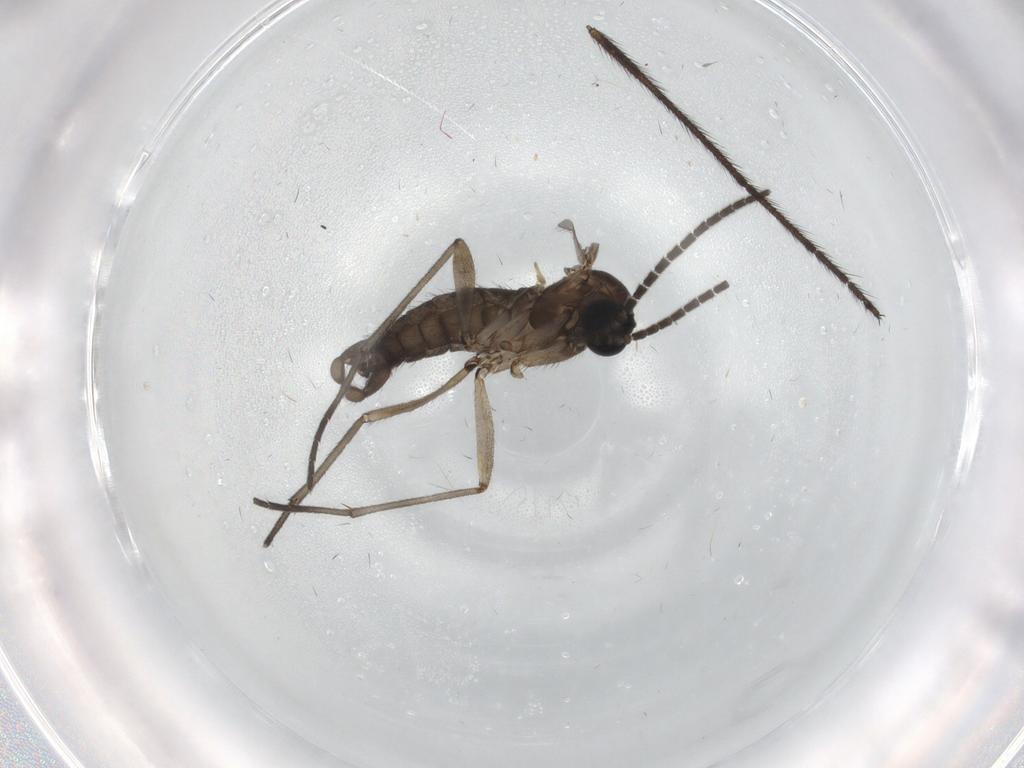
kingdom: Animalia
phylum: Arthropoda
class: Insecta
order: Diptera
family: Sciaridae
